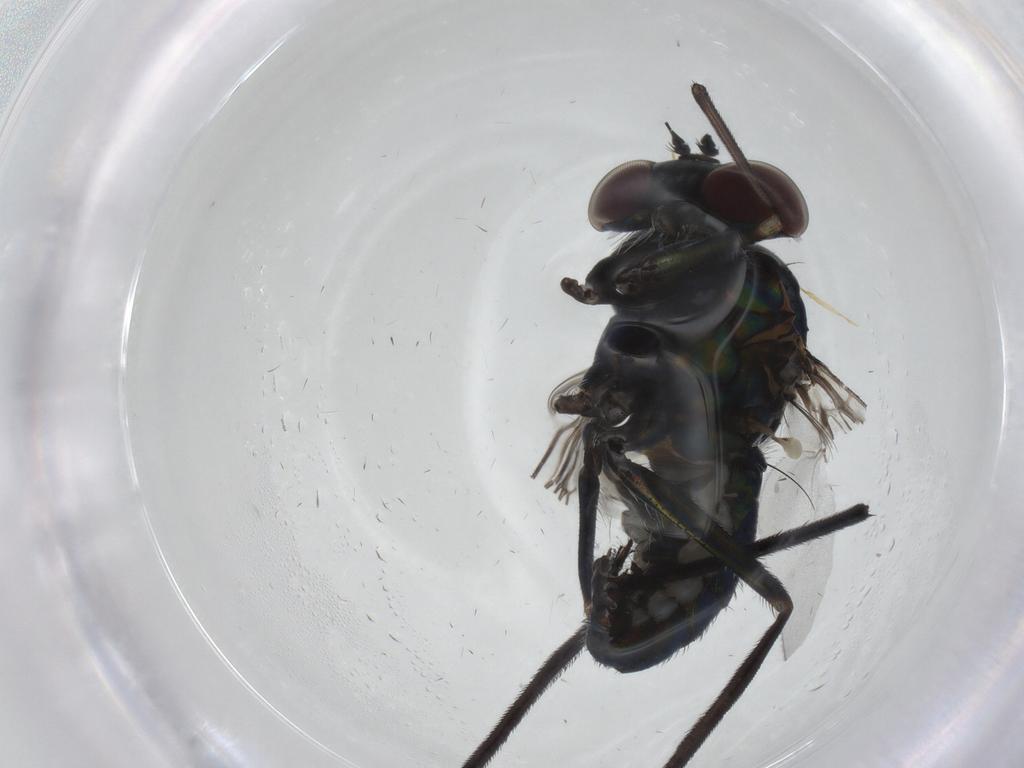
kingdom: Animalia
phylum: Arthropoda
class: Insecta
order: Diptera
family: Dolichopodidae
